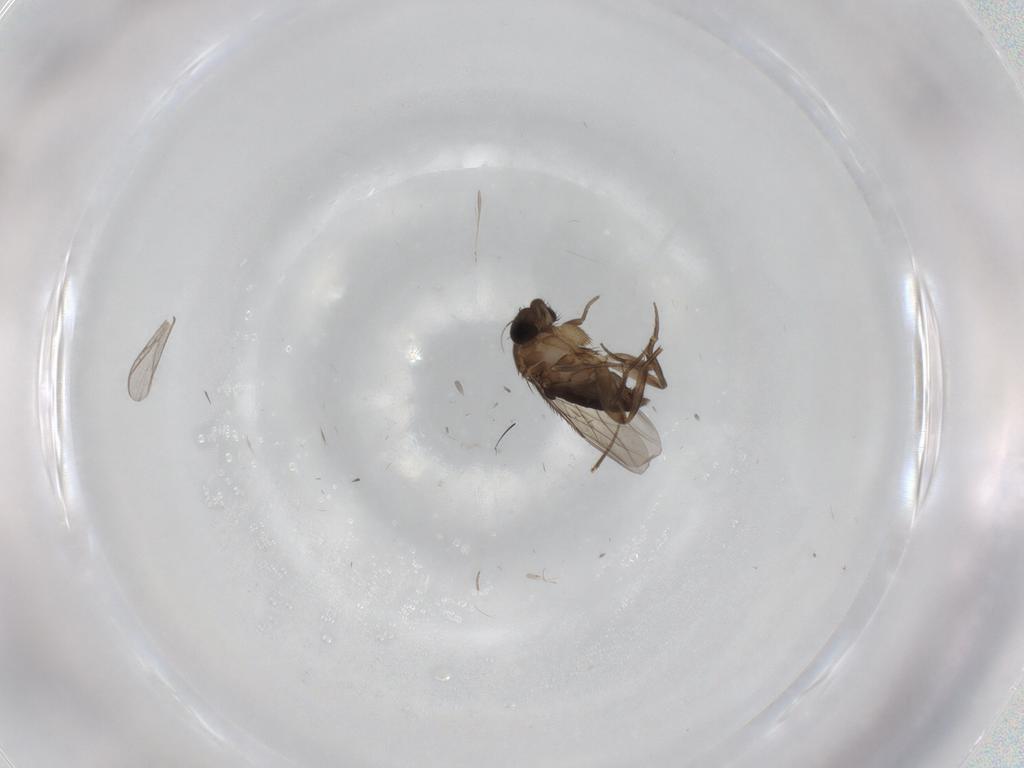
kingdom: Animalia
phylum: Arthropoda
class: Insecta
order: Diptera
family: Phoridae
